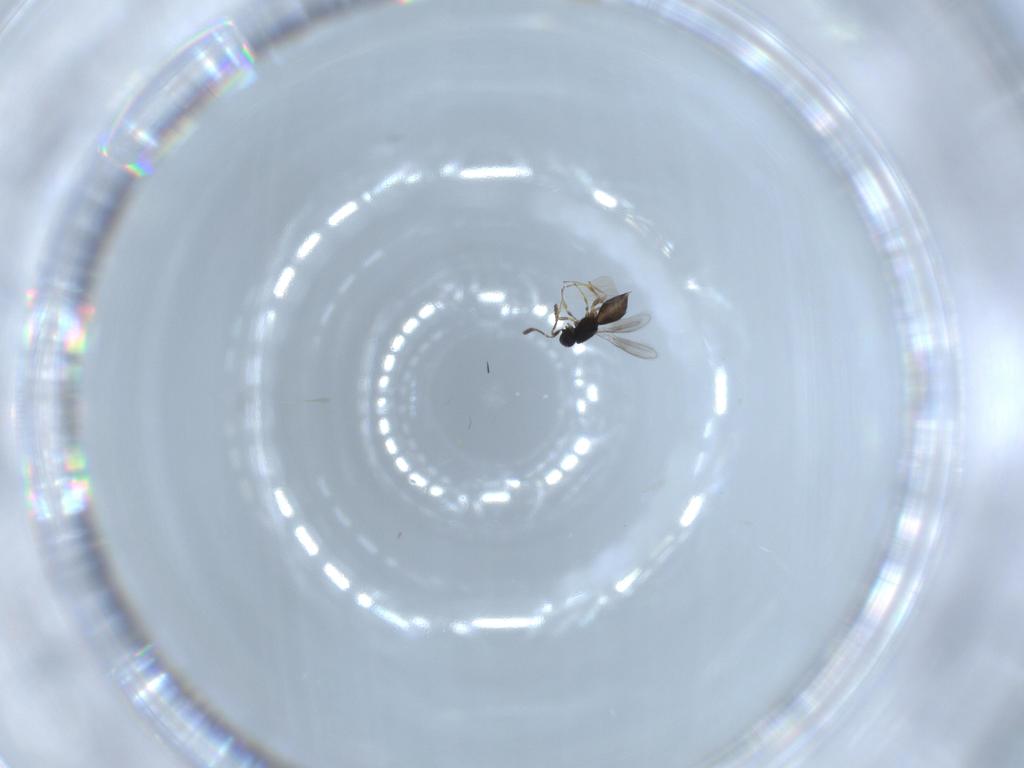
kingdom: Animalia
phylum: Arthropoda
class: Insecta
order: Hymenoptera
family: Scelionidae
